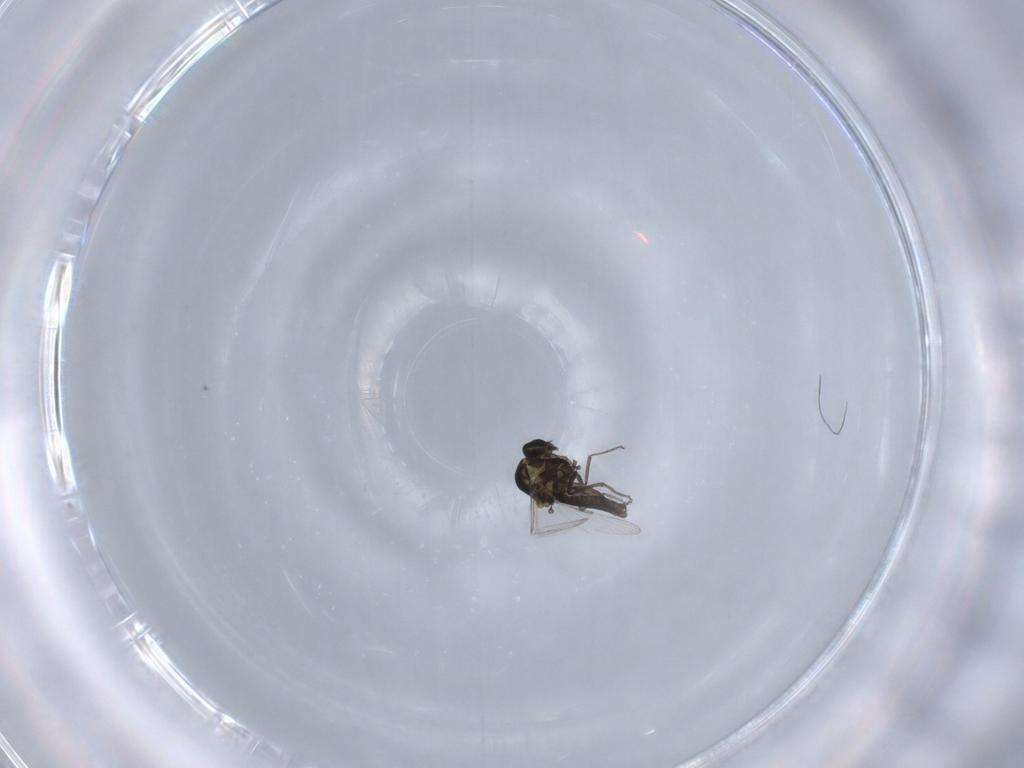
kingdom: Animalia
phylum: Arthropoda
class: Insecta
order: Diptera
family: Ceratopogonidae
